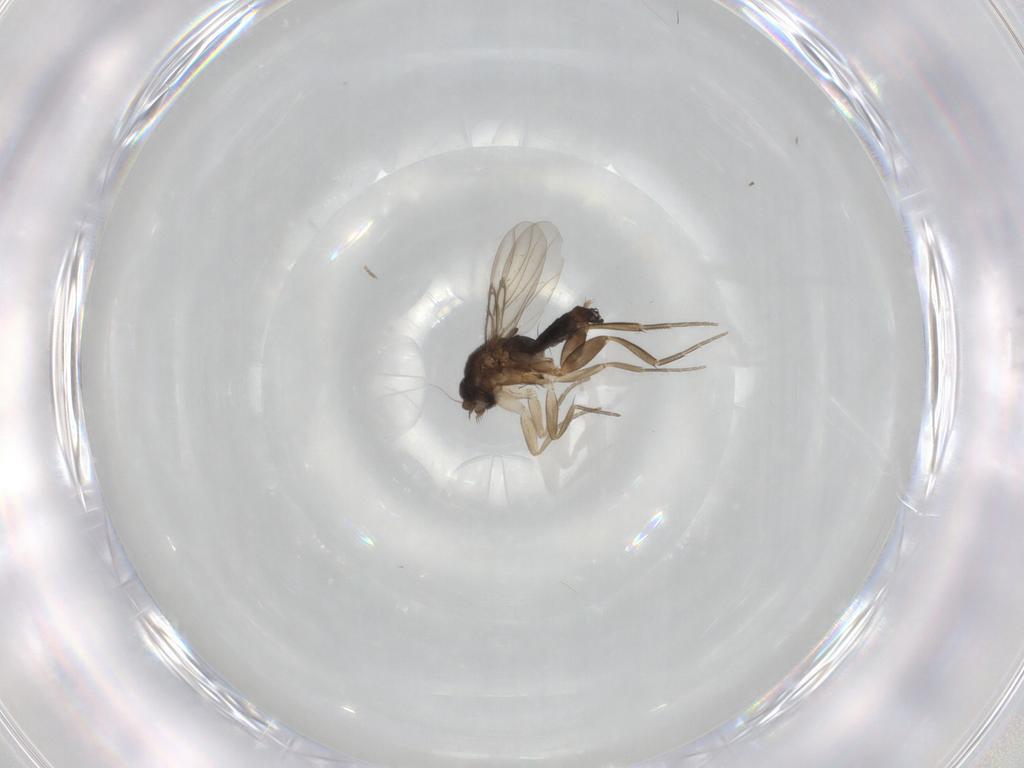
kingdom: Animalia
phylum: Arthropoda
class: Insecta
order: Diptera
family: Phoridae
